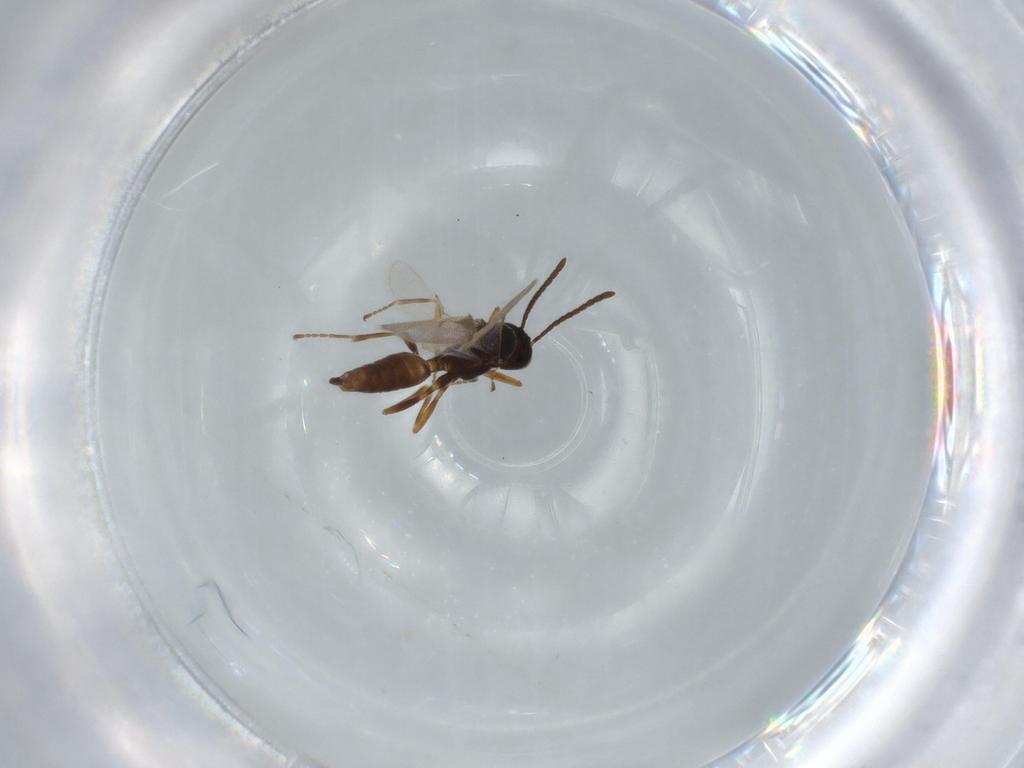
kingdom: Animalia
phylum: Arthropoda
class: Insecta
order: Hymenoptera
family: Braconidae
